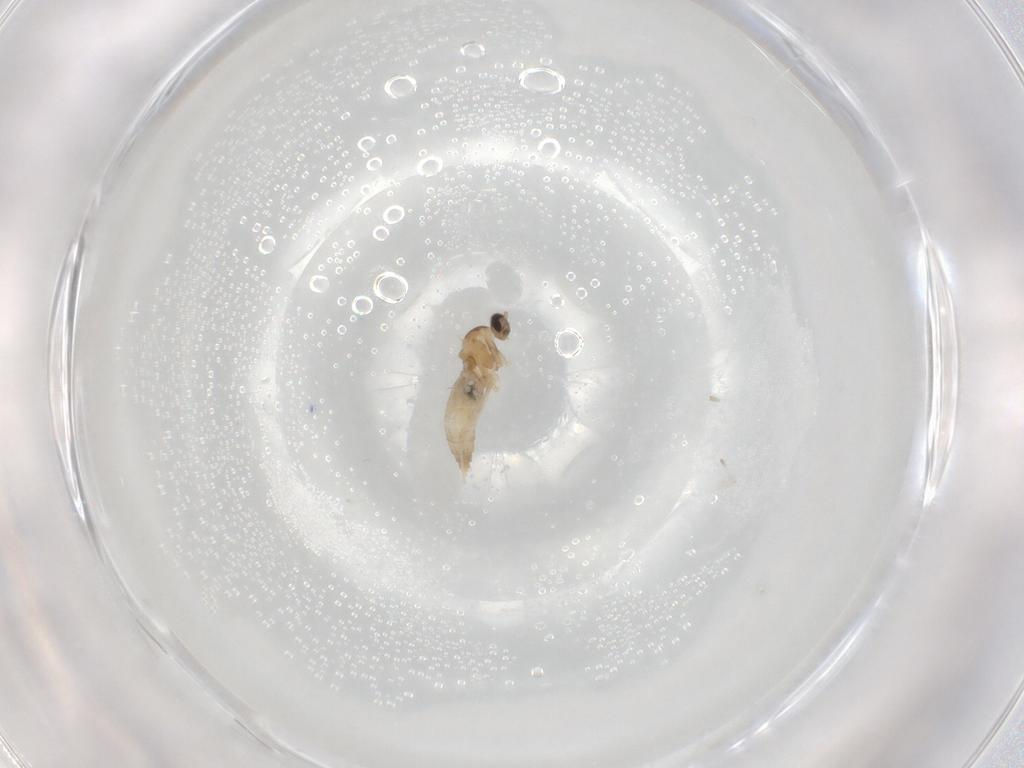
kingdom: Animalia
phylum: Arthropoda
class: Insecta
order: Diptera
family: Cecidomyiidae
